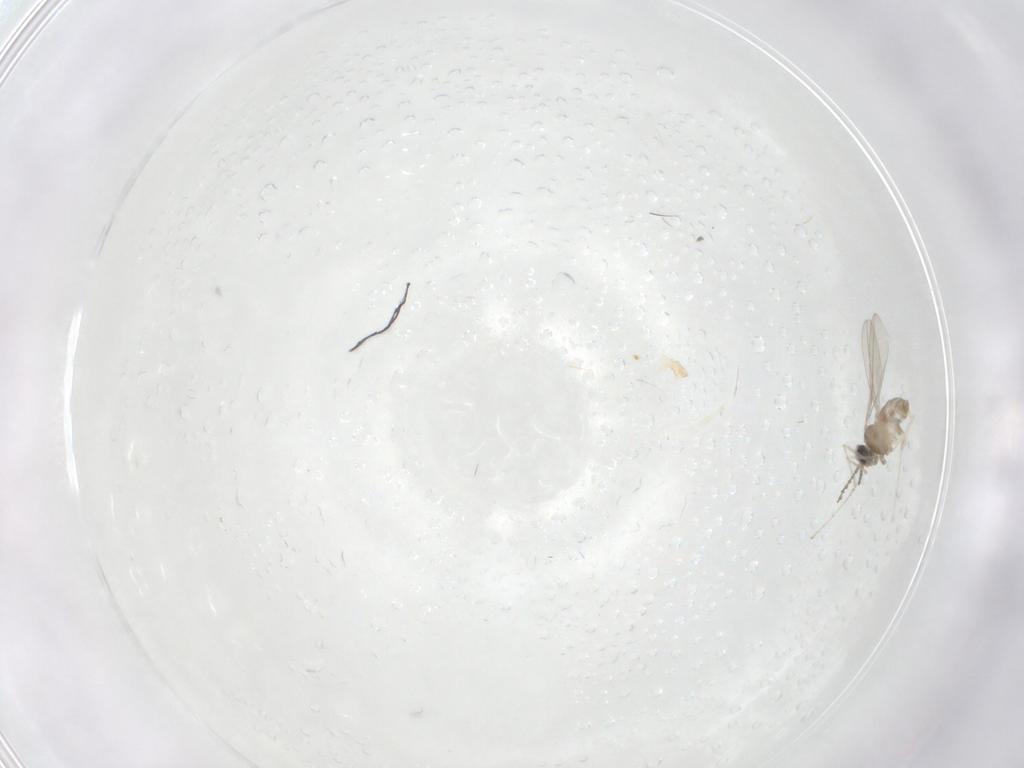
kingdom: Animalia
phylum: Arthropoda
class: Insecta
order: Diptera
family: Cecidomyiidae
